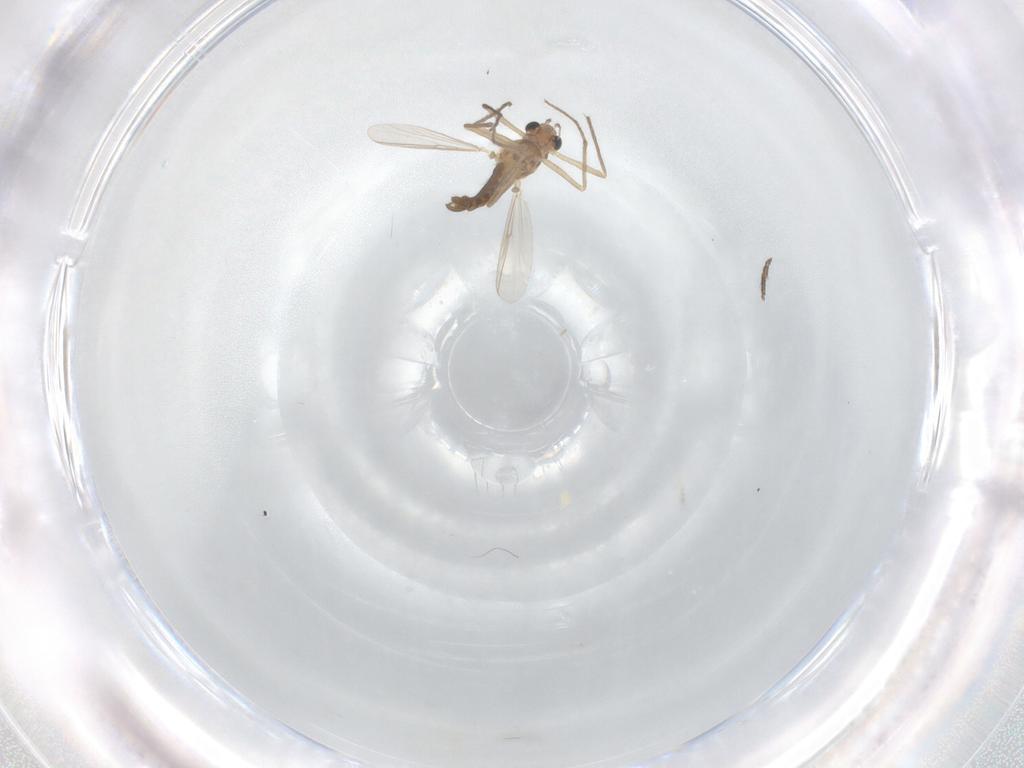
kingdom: Animalia
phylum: Arthropoda
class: Insecta
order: Diptera
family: Chironomidae
